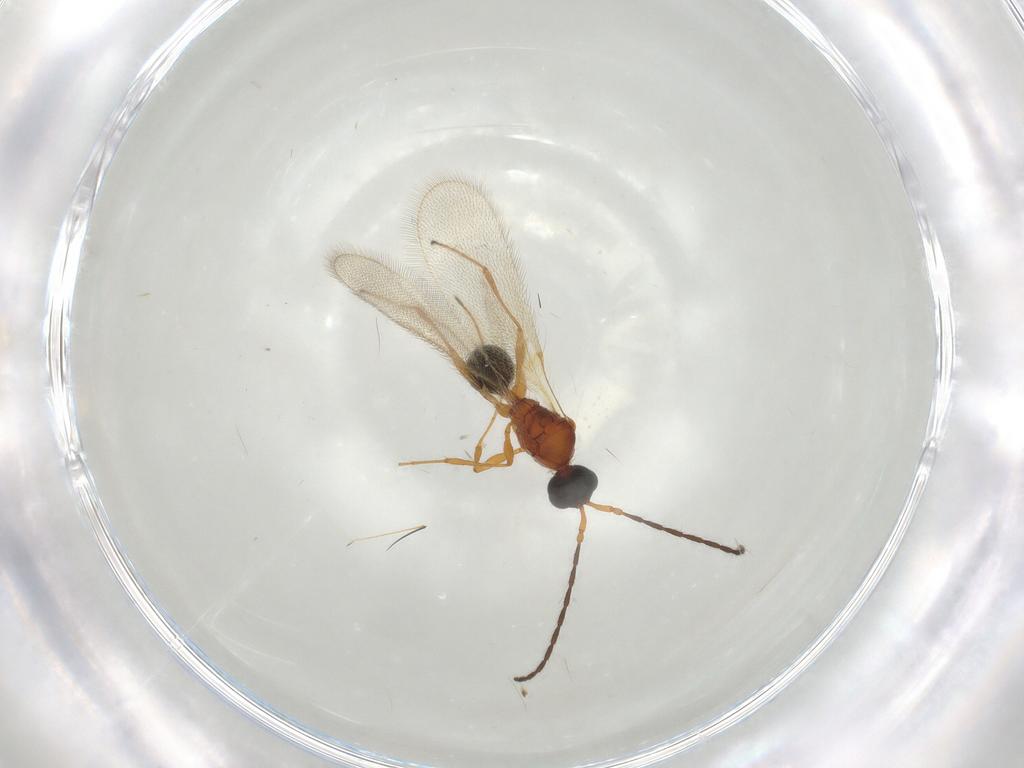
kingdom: Animalia
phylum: Arthropoda
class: Insecta
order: Hymenoptera
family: Diapriidae
